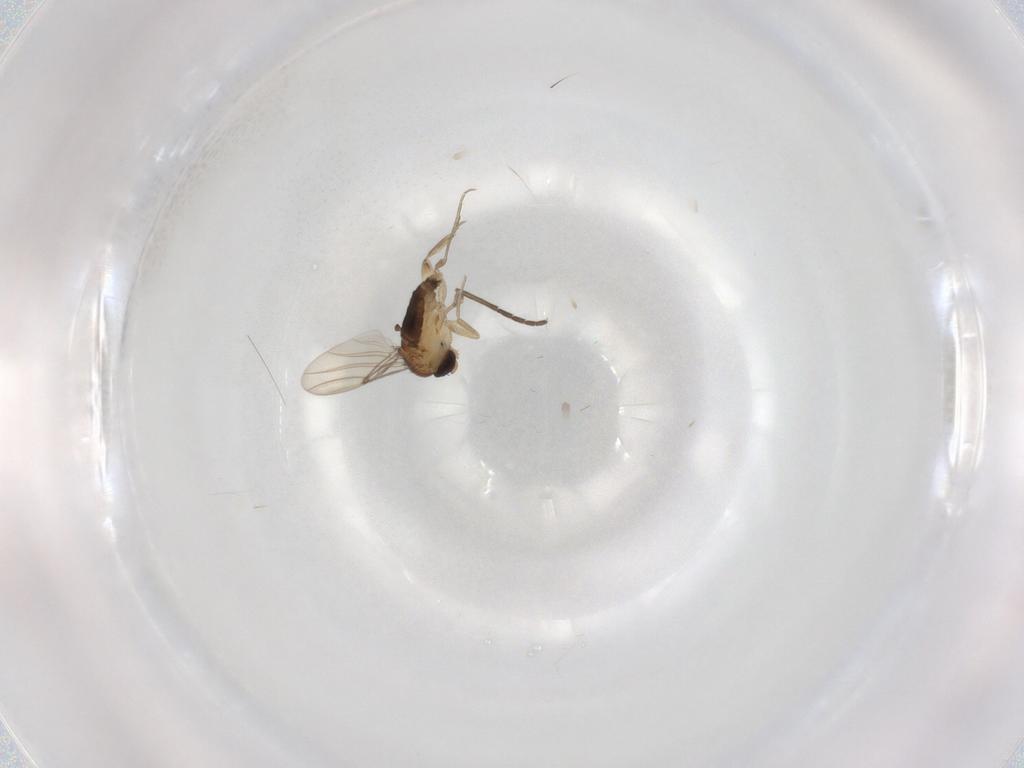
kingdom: Animalia
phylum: Arthropoda
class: Insecta
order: Diptera
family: Phoridae
